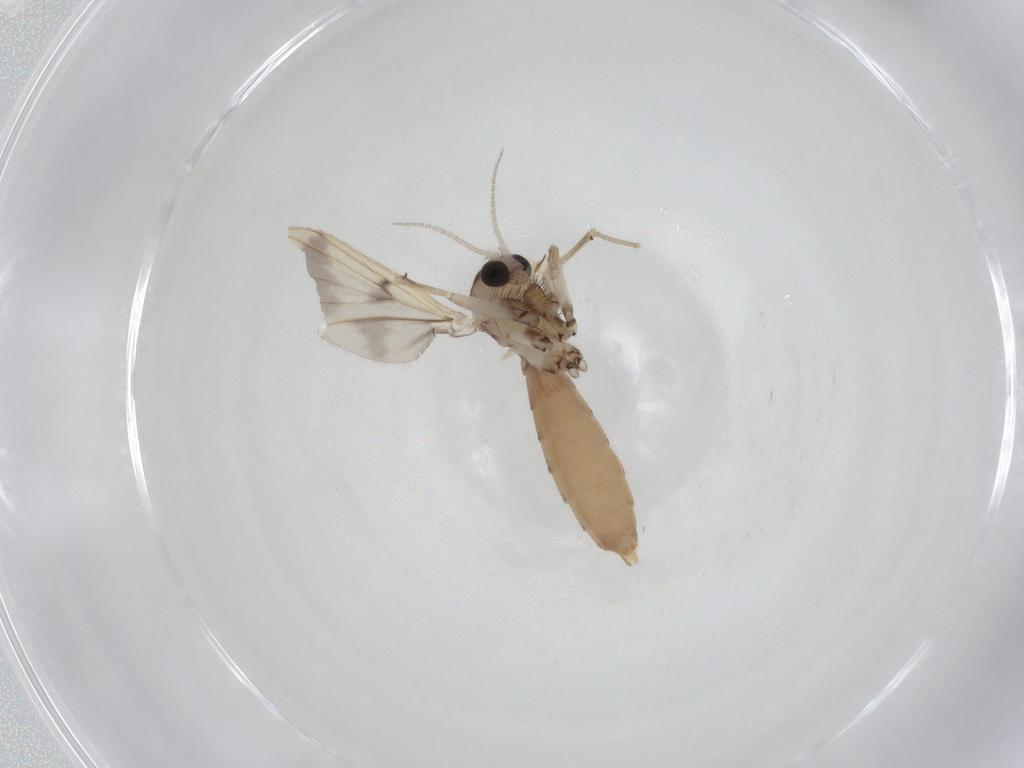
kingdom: Animalia
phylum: Arthropoda
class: Insecta
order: Diptera
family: Mycetophilidae
